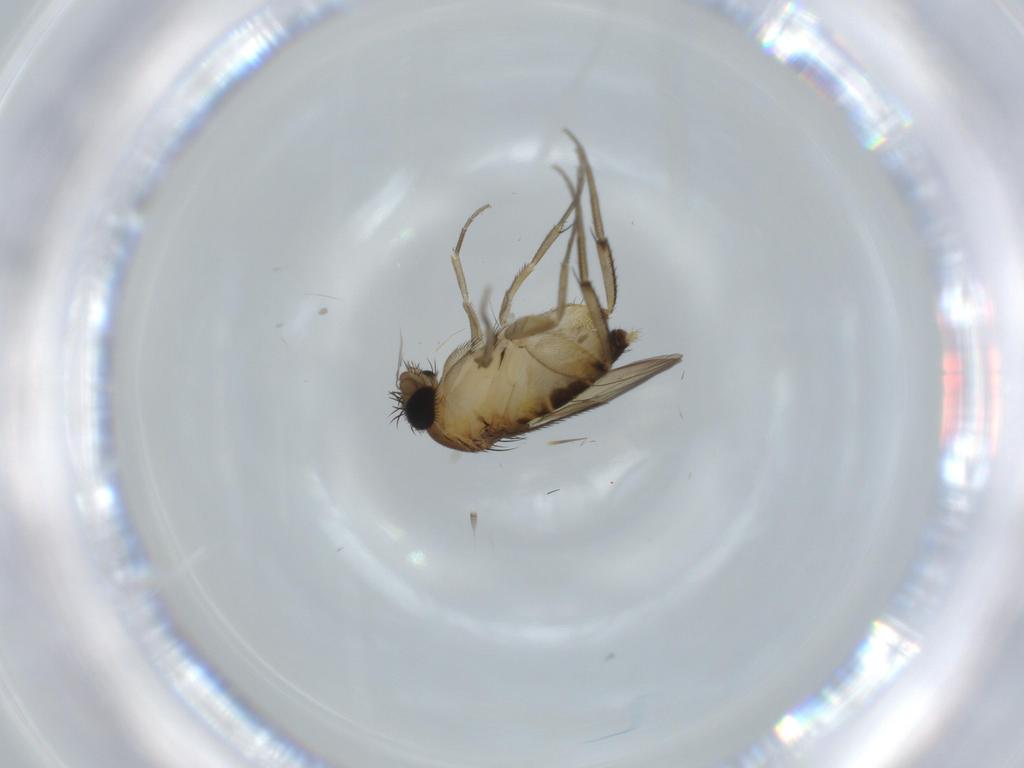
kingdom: Animalia
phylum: Arthropoda
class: Insecta
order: Diptera
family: Phoridae
